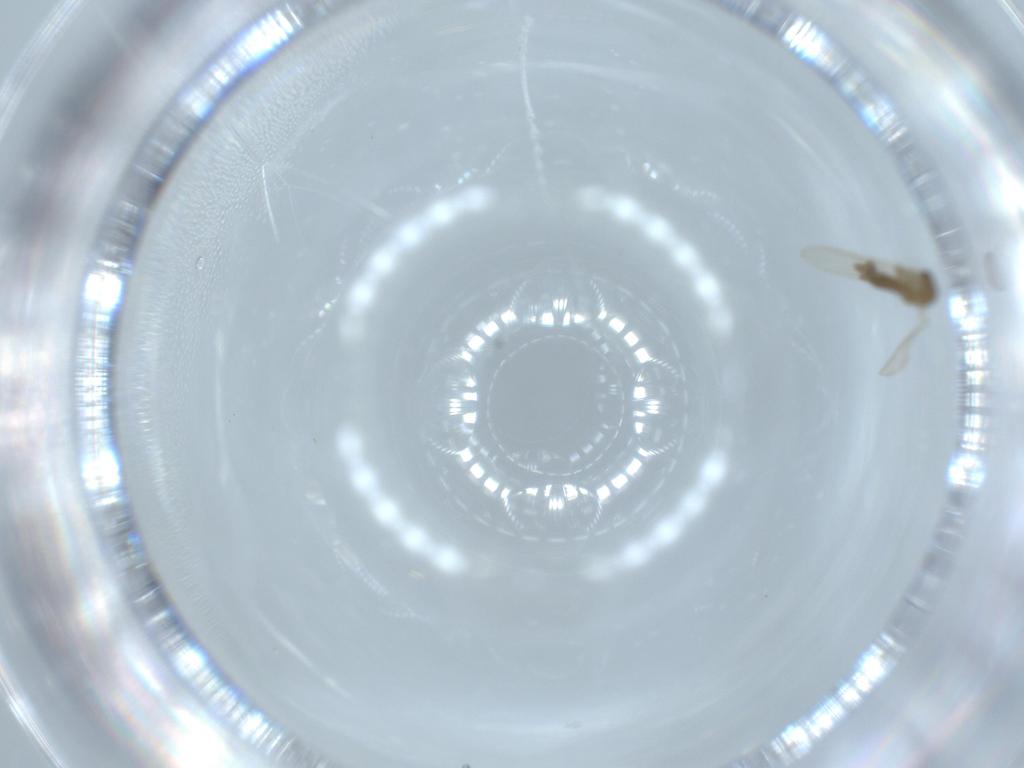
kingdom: Animalia
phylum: Arthropoda
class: Insecta
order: Diptera
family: Psychodidae
